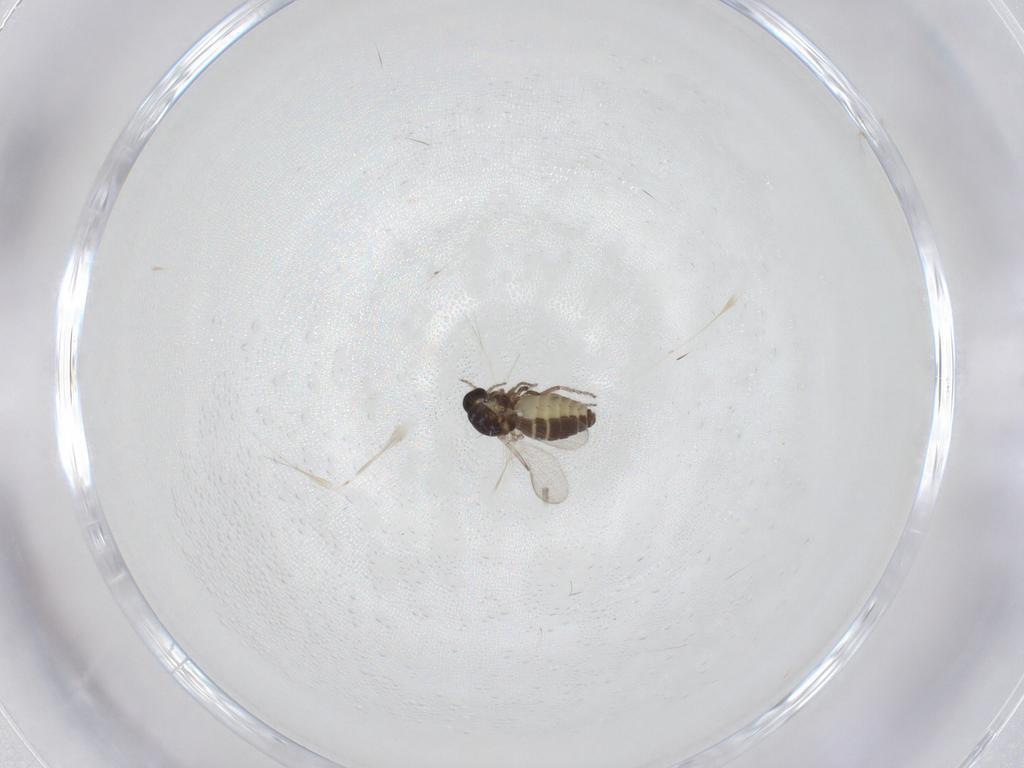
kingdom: Animalia
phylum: Arthropoda
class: Insecta
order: Diptera
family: Ceratopogonidae
